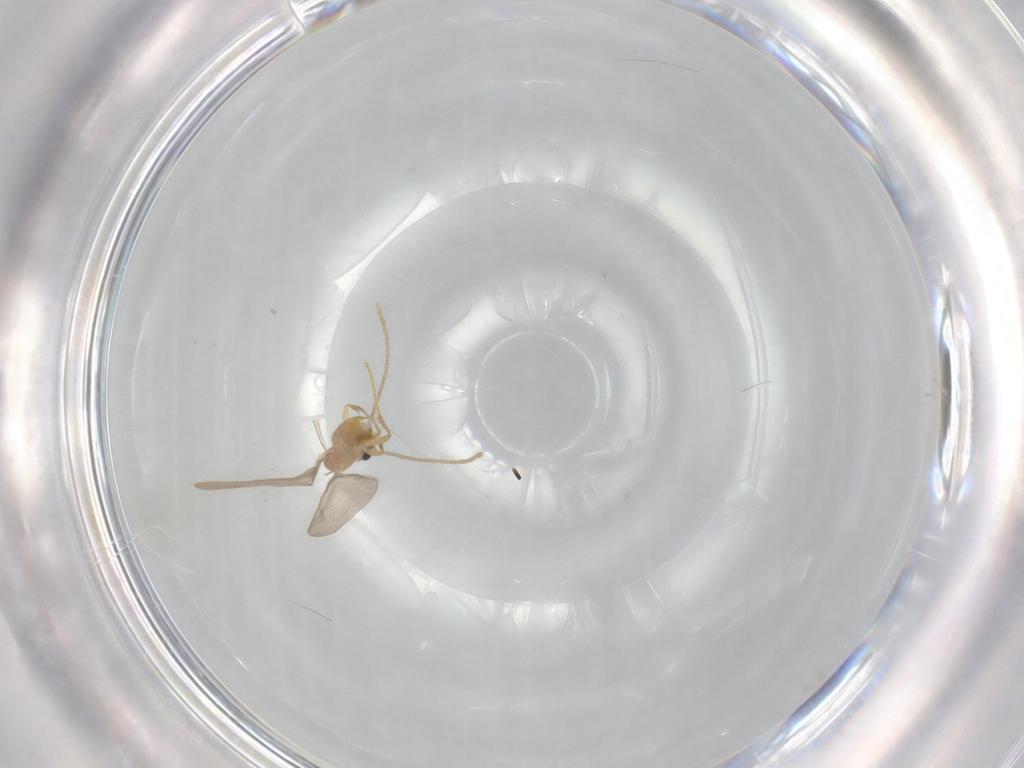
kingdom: Animalia
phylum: Arthropoda
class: Insecta
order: Hymenoptera
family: Formicidae
